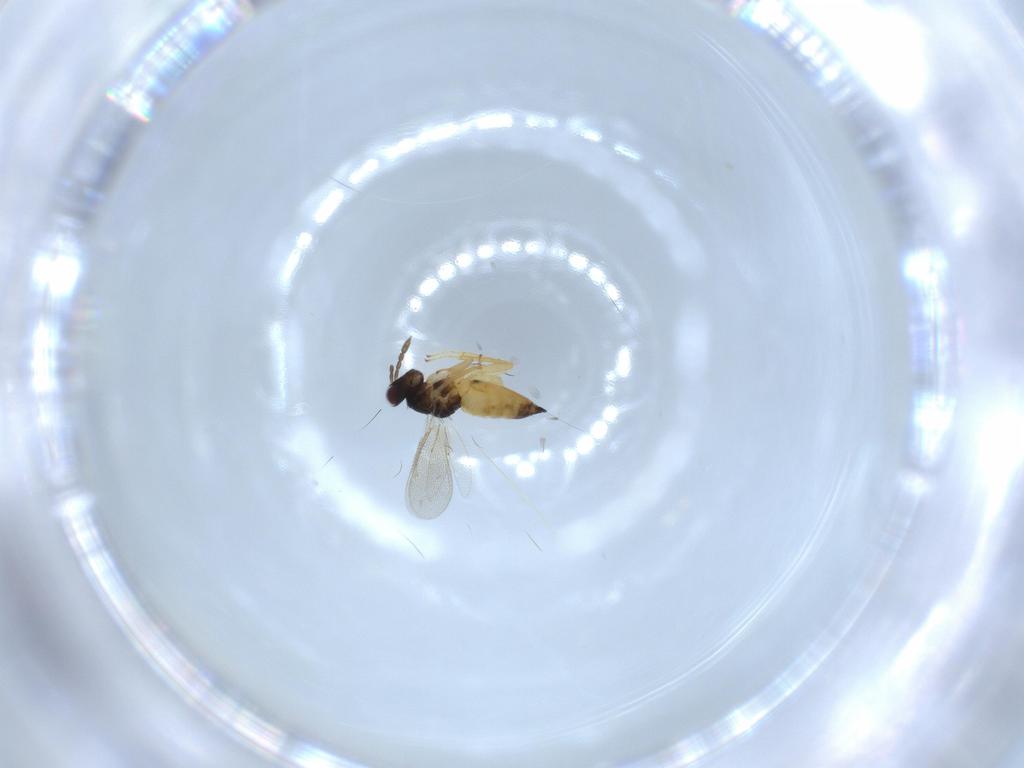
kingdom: Animalia
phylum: Arthropoda
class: Insecta
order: Hymenoptera
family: Eulophidae
